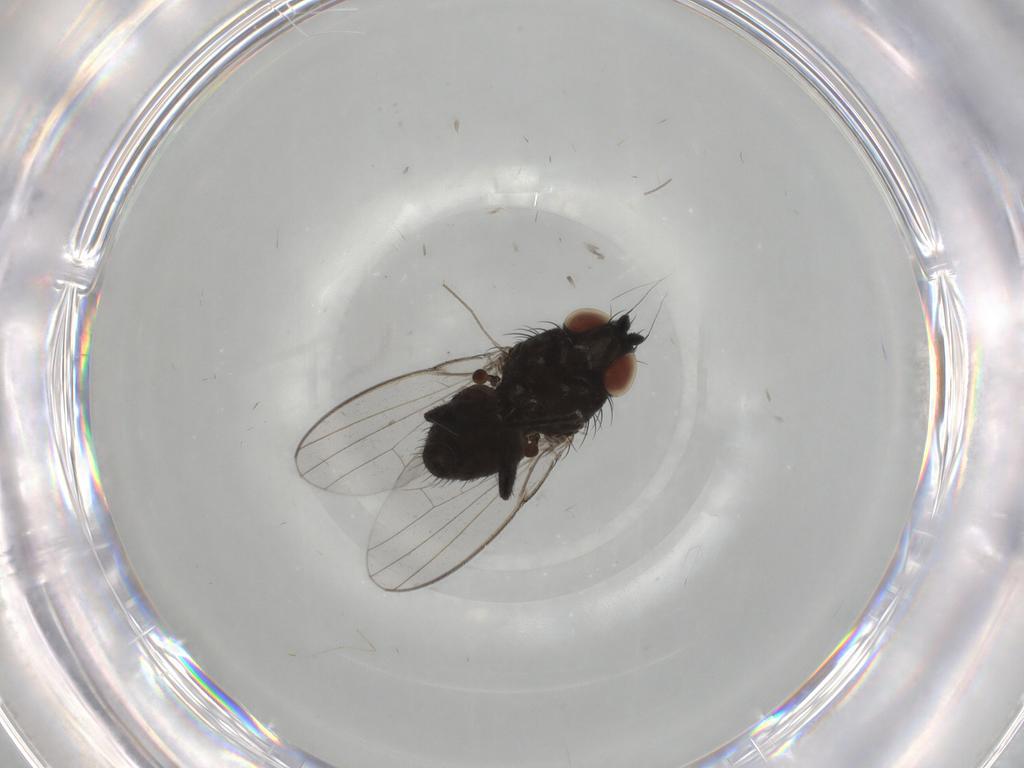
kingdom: Animalia
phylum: Arthropoda
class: Insecta
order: Diptera
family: Milichiidae
